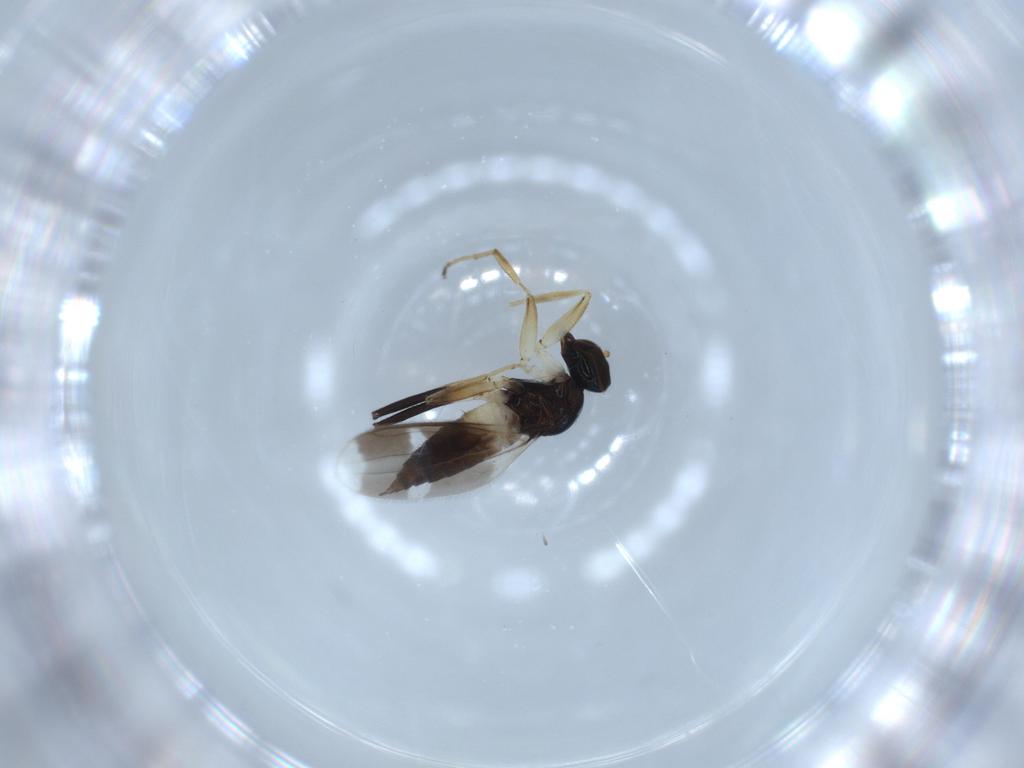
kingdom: Animalia
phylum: Arthropoda
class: Insecta
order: Diptera
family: Hybotidae
